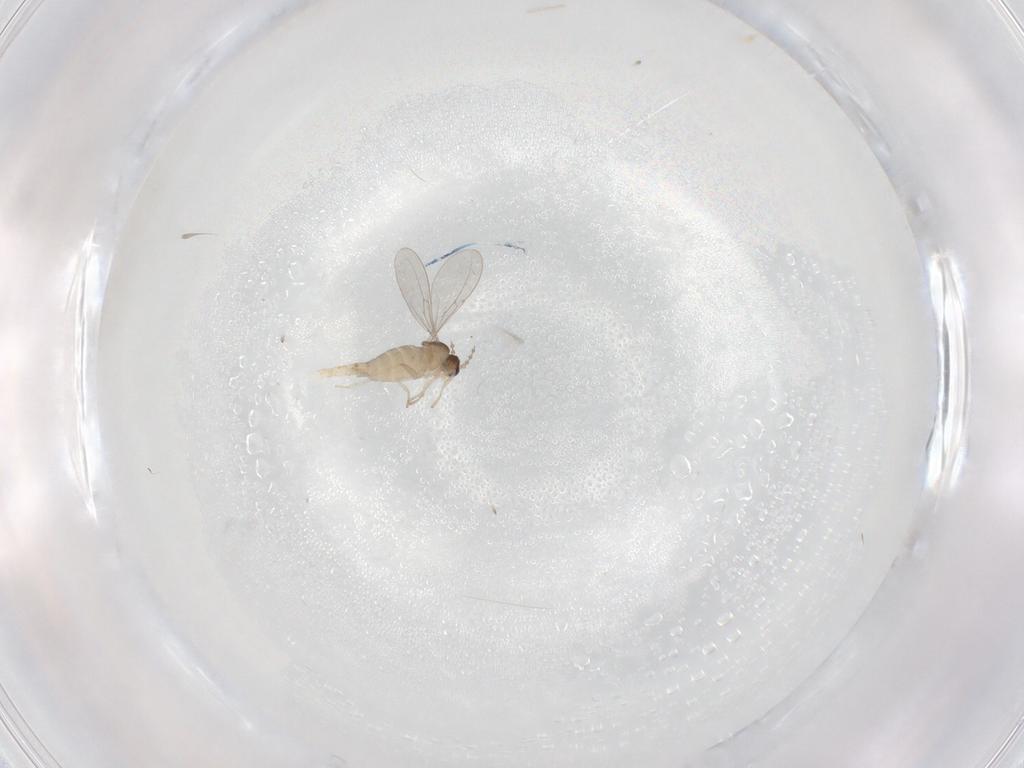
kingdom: Animalia
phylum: Arthropoda
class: Insecta
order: Diptera
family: Cecidomyiidae
